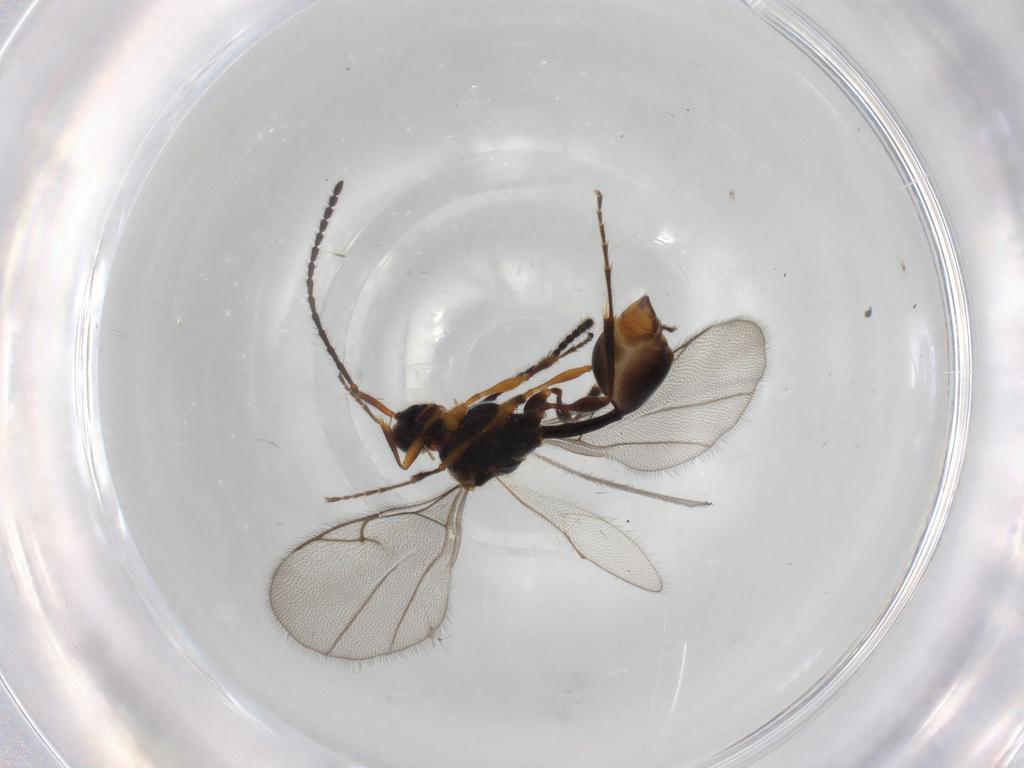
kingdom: Animalia
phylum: Arthropoda
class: Insecta
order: Hymenoptera
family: Diapriidae
